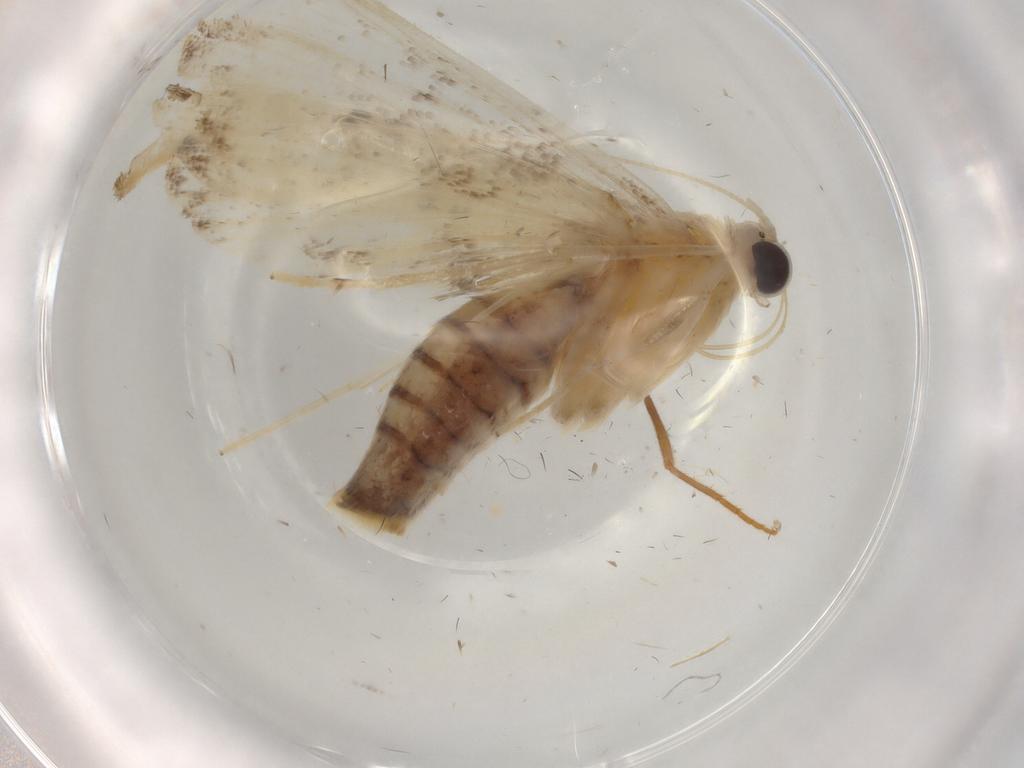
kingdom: Animalia
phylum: Arthropoda
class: Insecta
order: Lepidoptera
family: Crambidae
